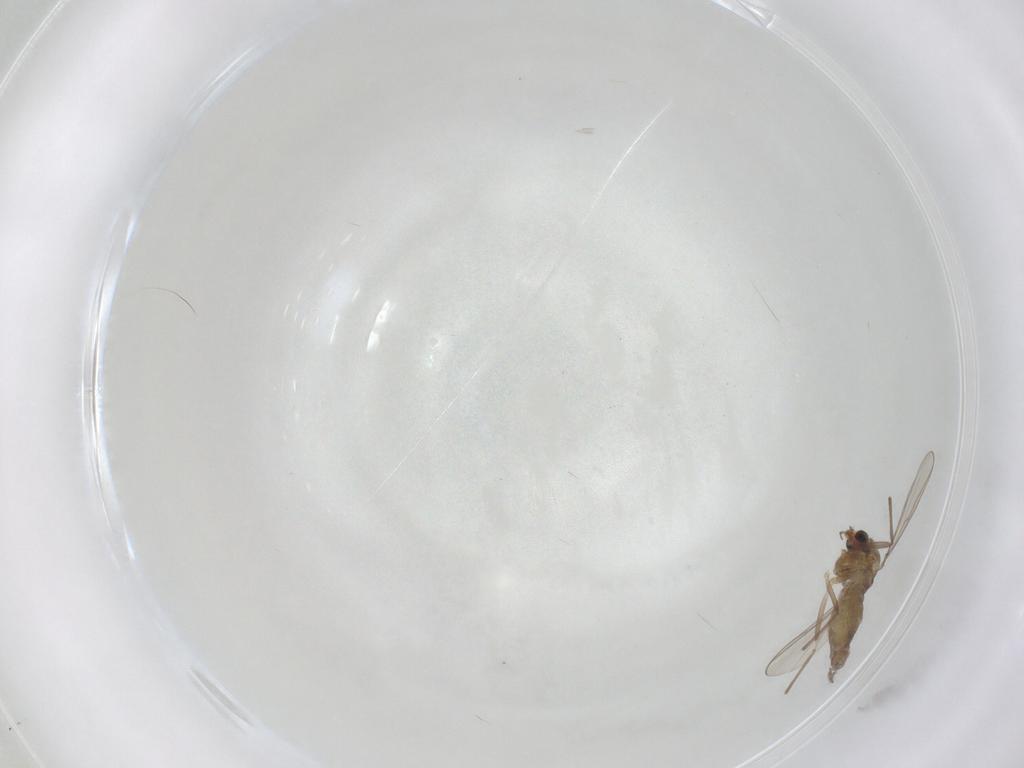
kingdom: Animalia
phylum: Arthropoda
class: Insecta
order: Diptera
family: Chironomidae
